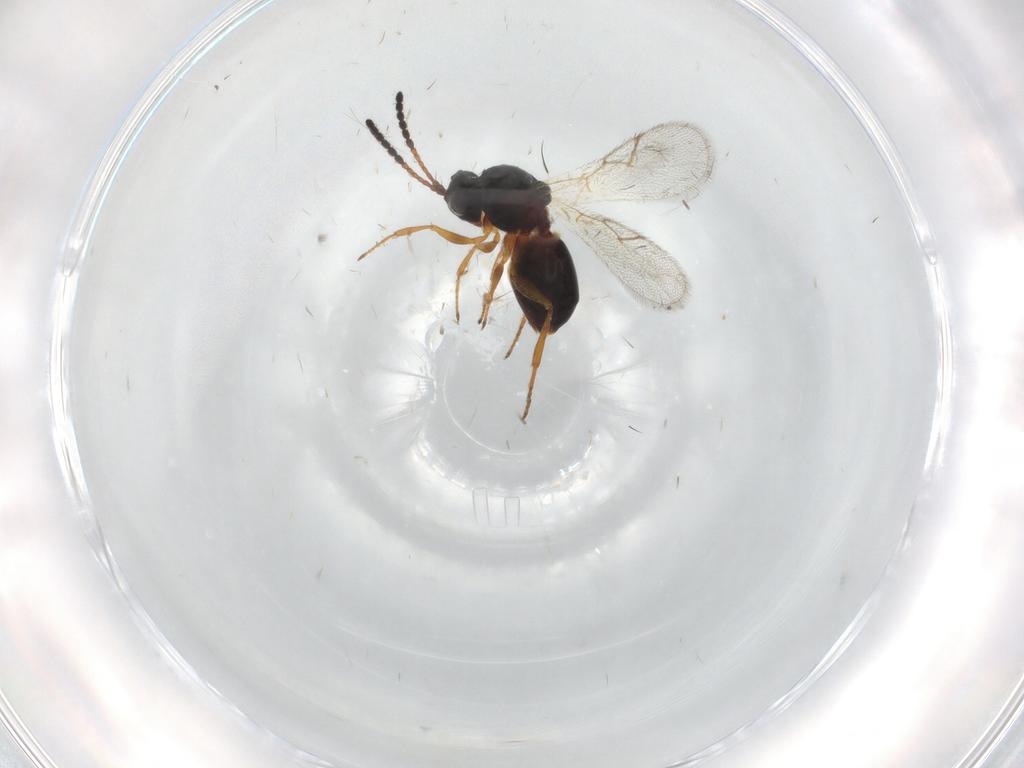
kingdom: Animalia
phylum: Arthropoda
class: Insecta
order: Hymenoptera
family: Figitidae
